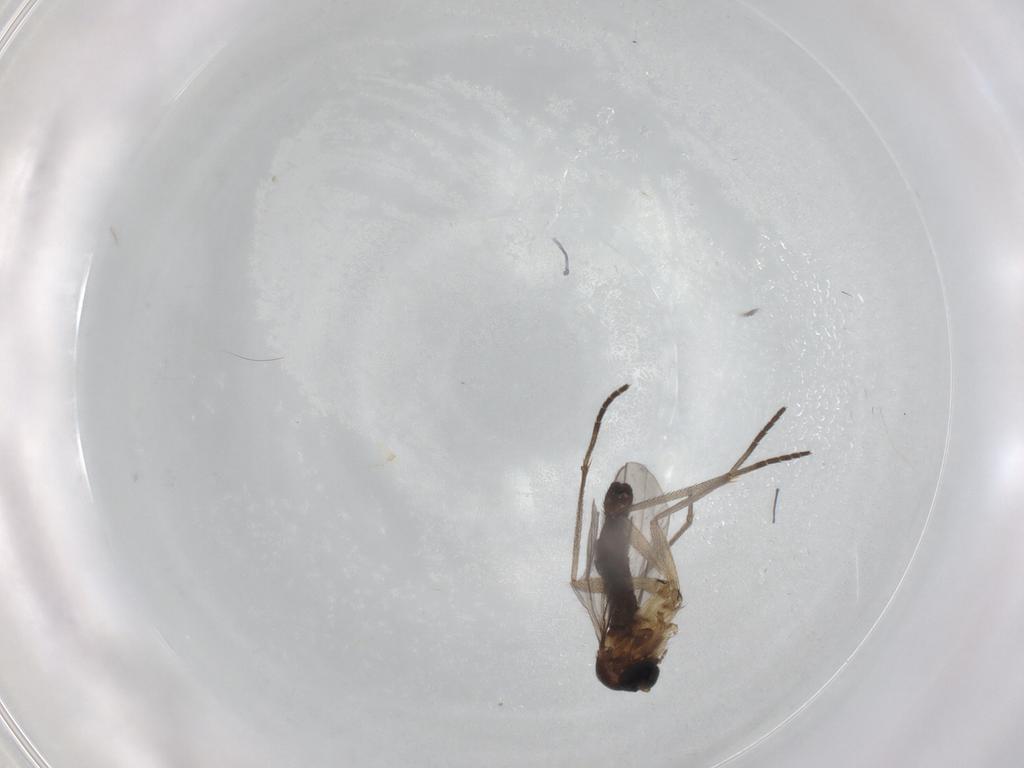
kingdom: Animalia
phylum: Arthropoda
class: Insecta
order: Diptera
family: Sciaridae
